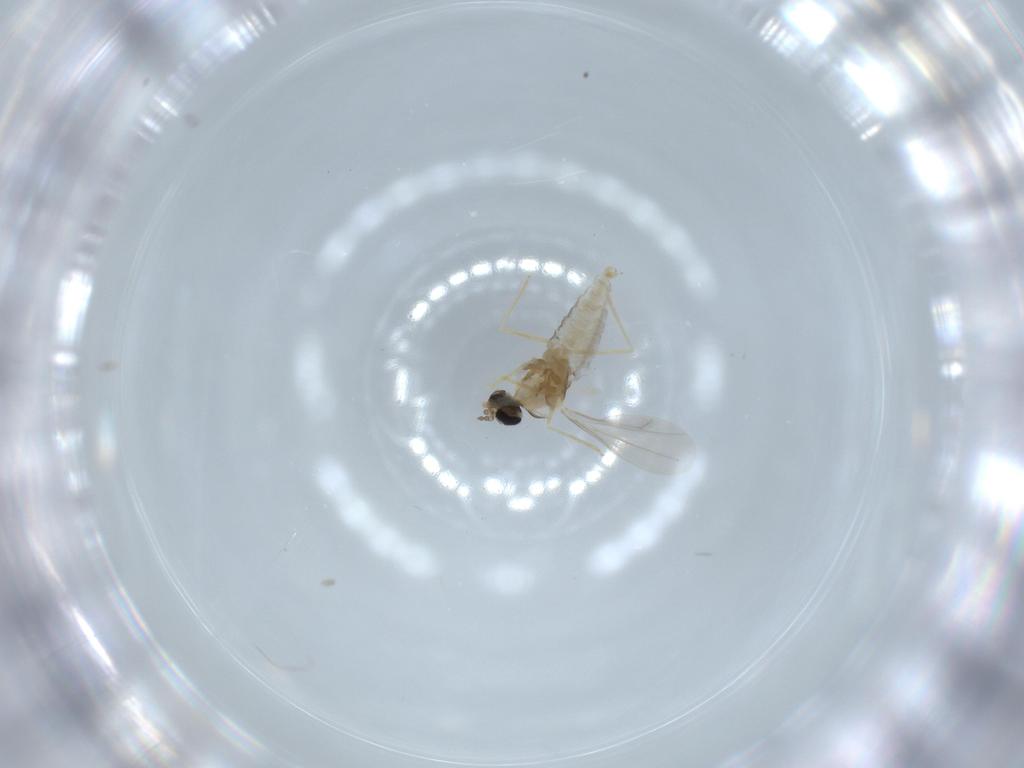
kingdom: Animalia
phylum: Arthropoda
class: Insecta
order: Diptera
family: Cecidomyiidae
